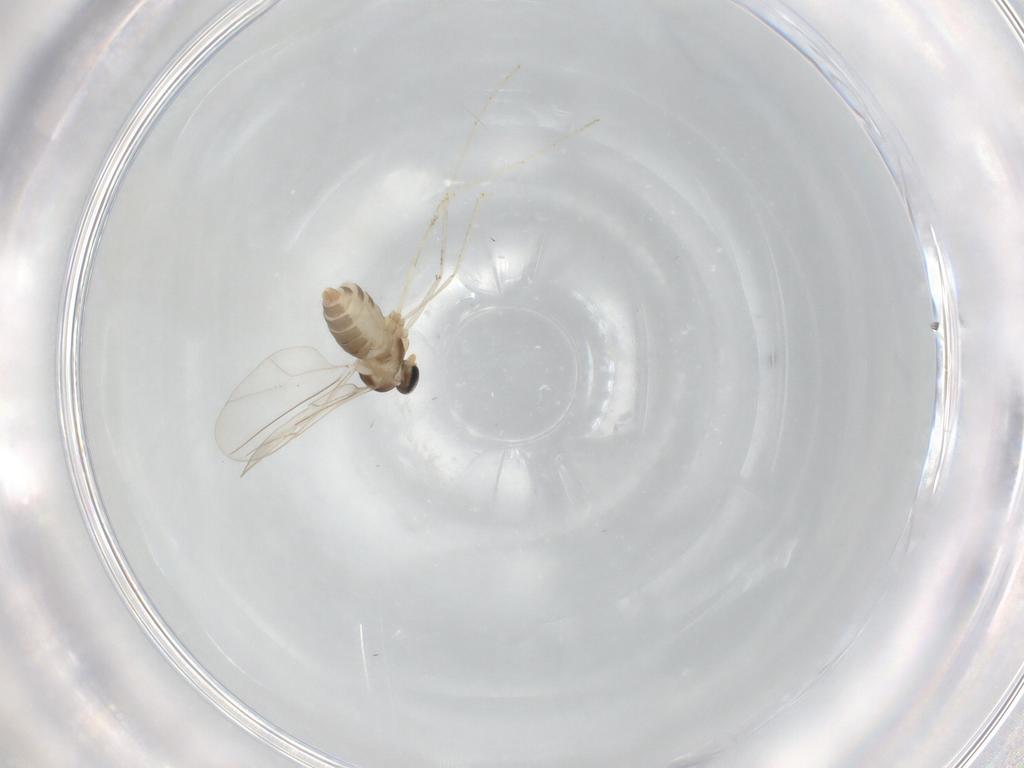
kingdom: Animalia
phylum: Arthropoda
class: Insecta
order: Diptera
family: Cecidomyiidae
